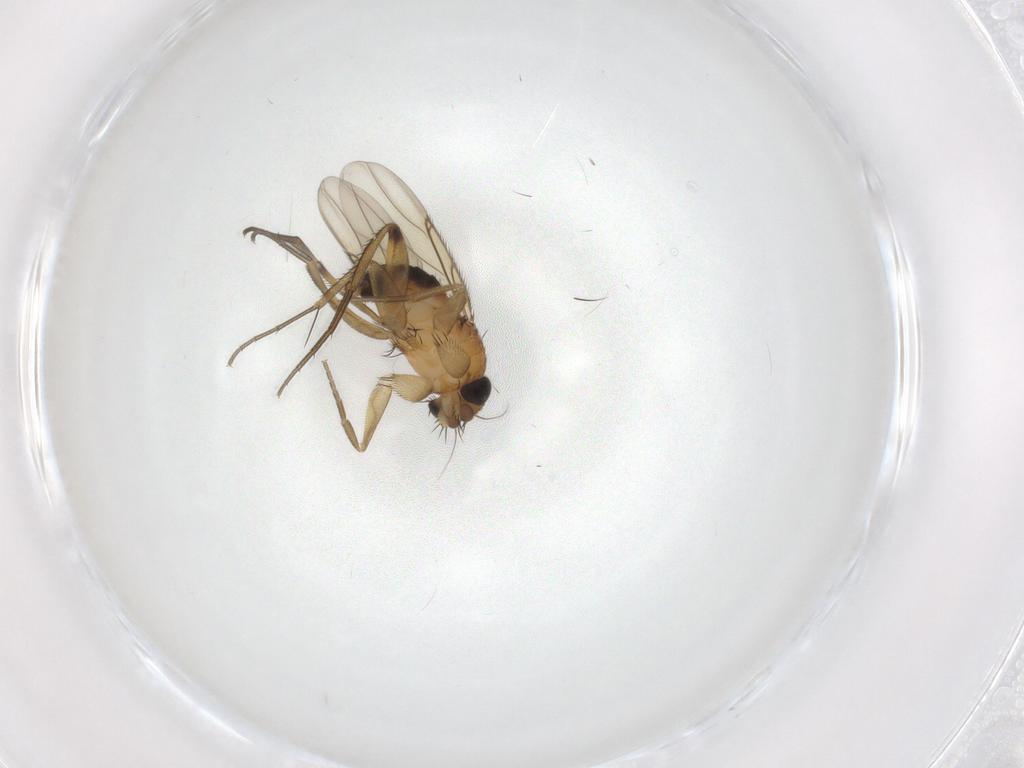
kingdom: Animalia
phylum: Arthropoda
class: Insecta
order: Diptera
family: Phoridae
